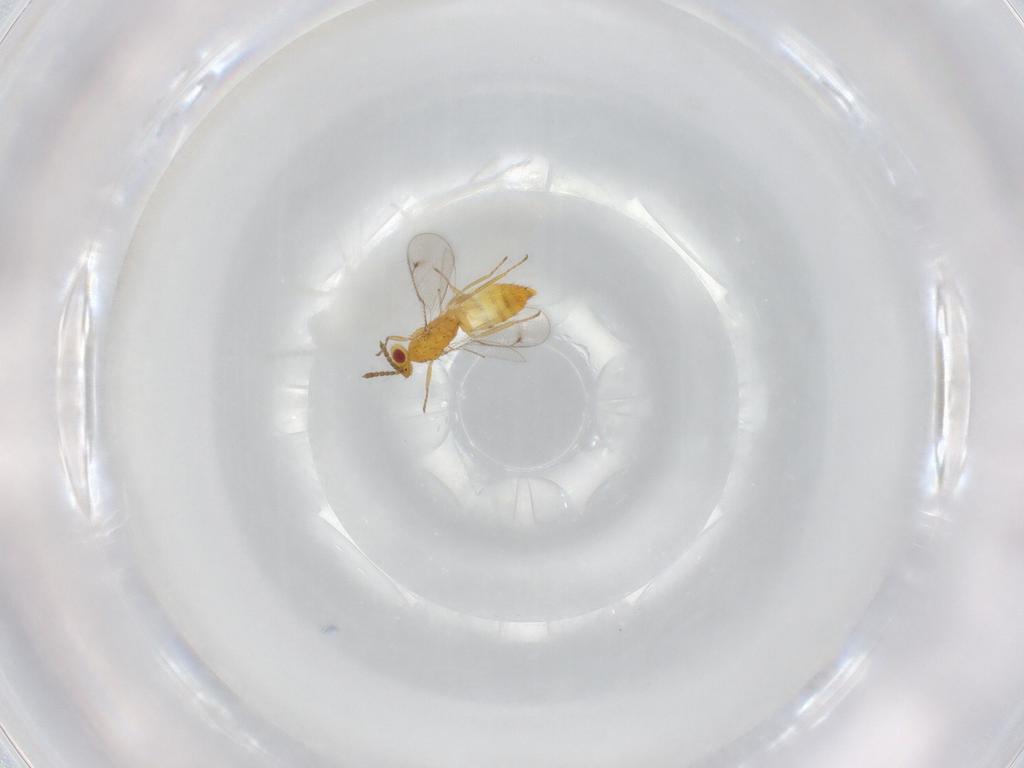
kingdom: Animalia
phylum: Arthropoda
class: Insecta
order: Hymenoptera
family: Eulophidae
